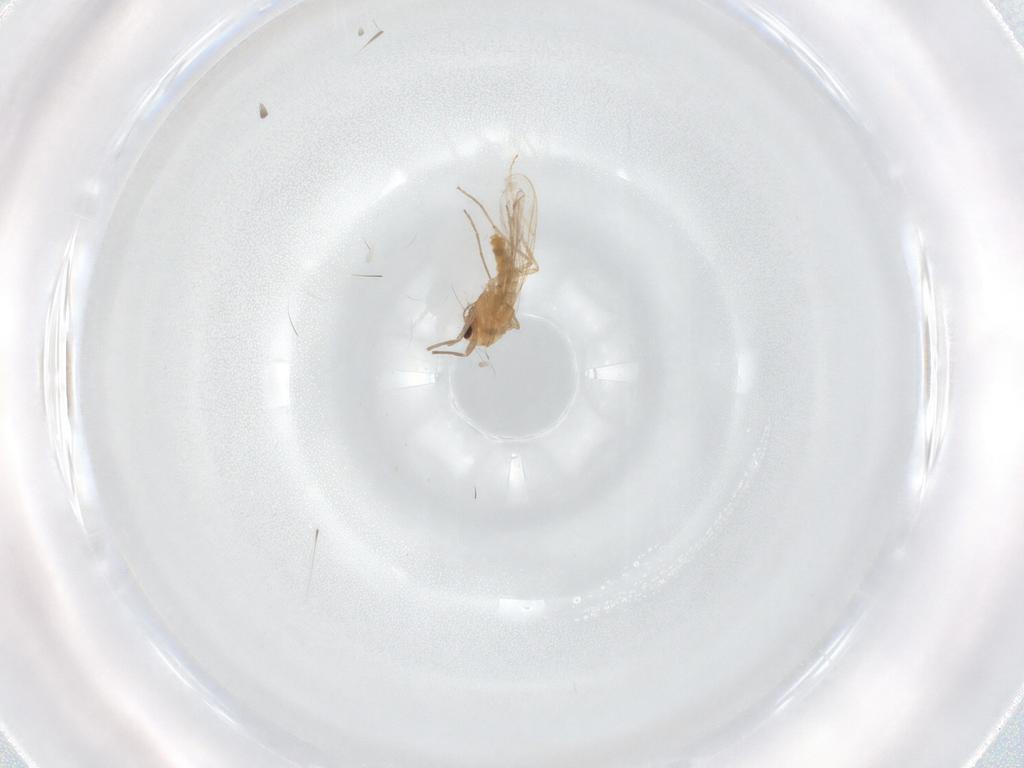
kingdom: Animalia
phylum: Arthropoda
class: Insecta
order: Diptera
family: Chironomidae
